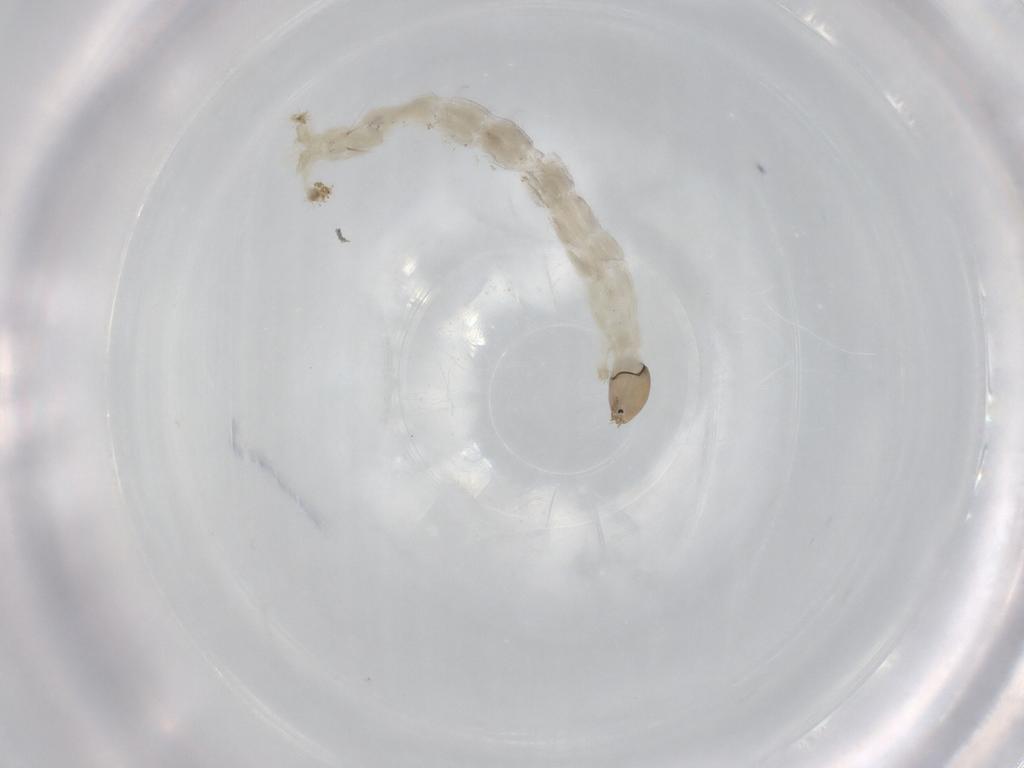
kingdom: Animalia
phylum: Arthropoda
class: Insecta
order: Diptera
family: Chironomidae
